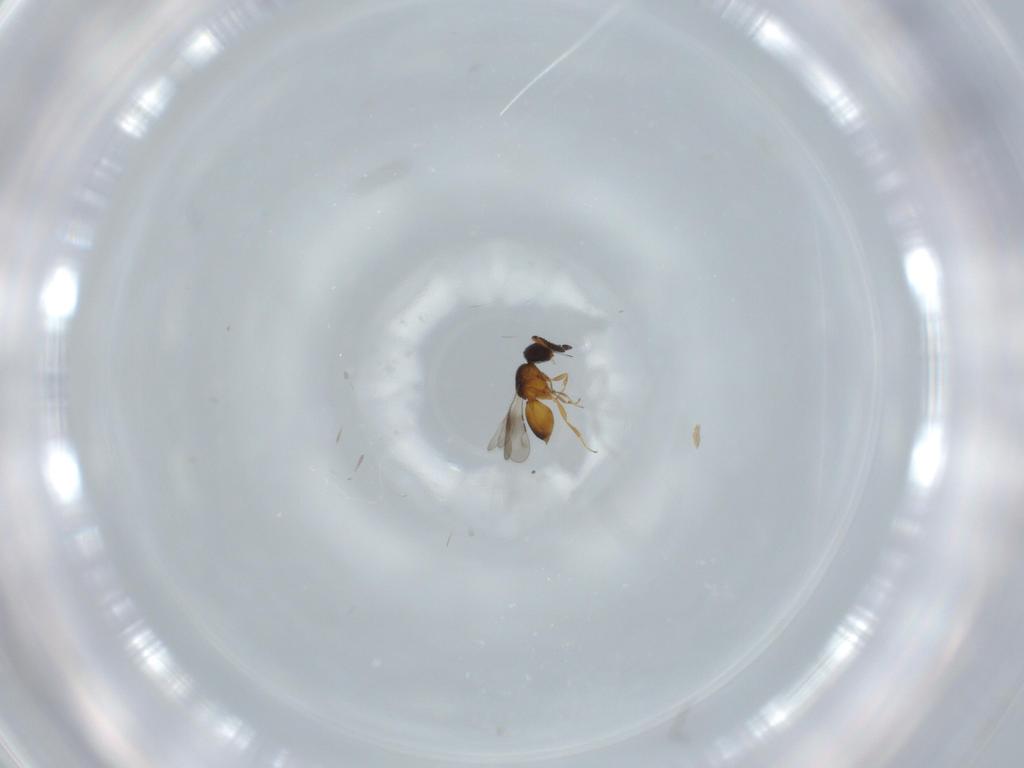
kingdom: Animalia
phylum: Arthropoda
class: Insecta
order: Hymenoptera
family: Ceraphronidae
